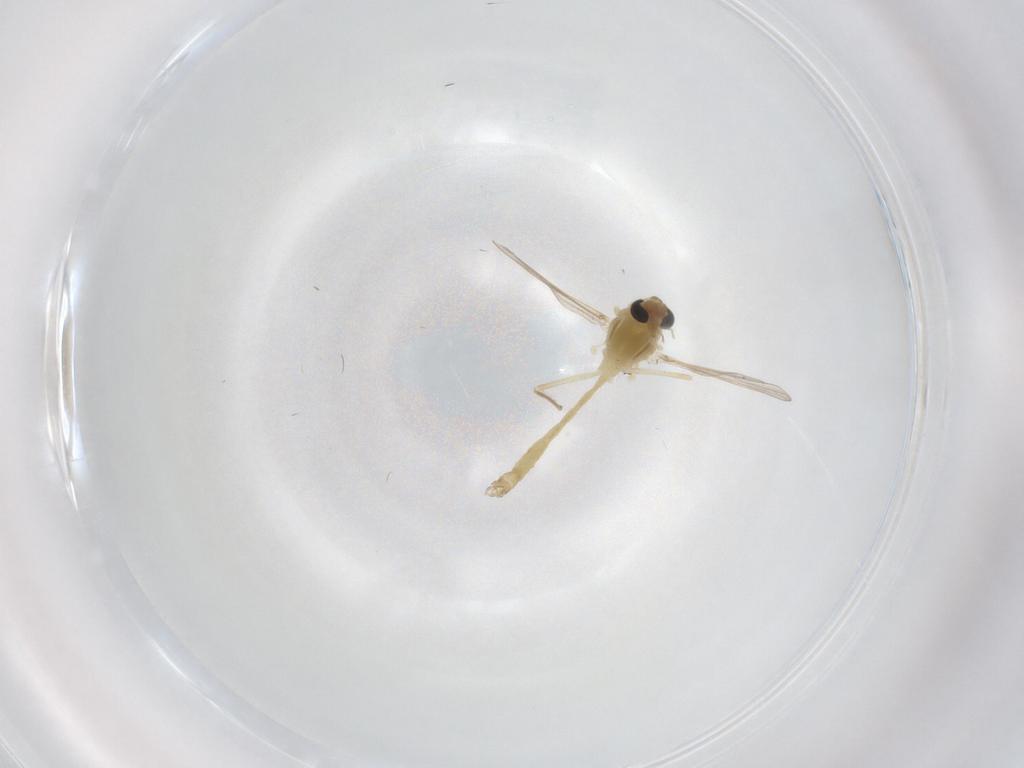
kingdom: Animalia
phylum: Arthropoda
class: Insecta
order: Diptera
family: Chironomidae
